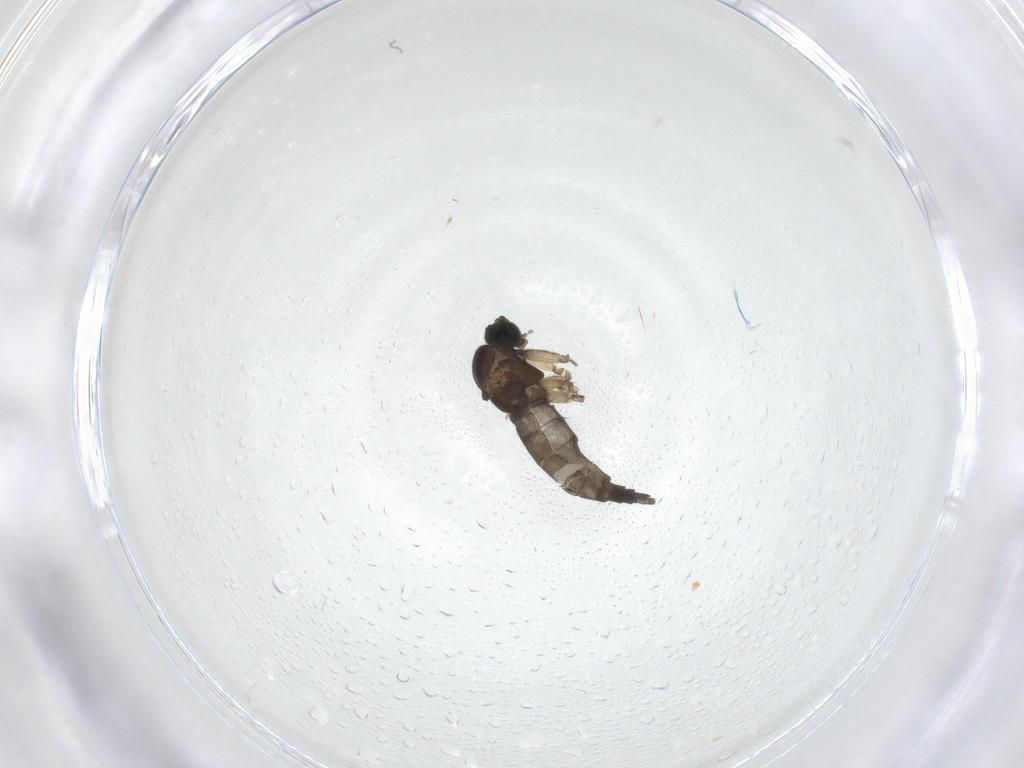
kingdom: Animalia
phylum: Arthropoda
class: Insecta
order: Diptera
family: Sciaridae
